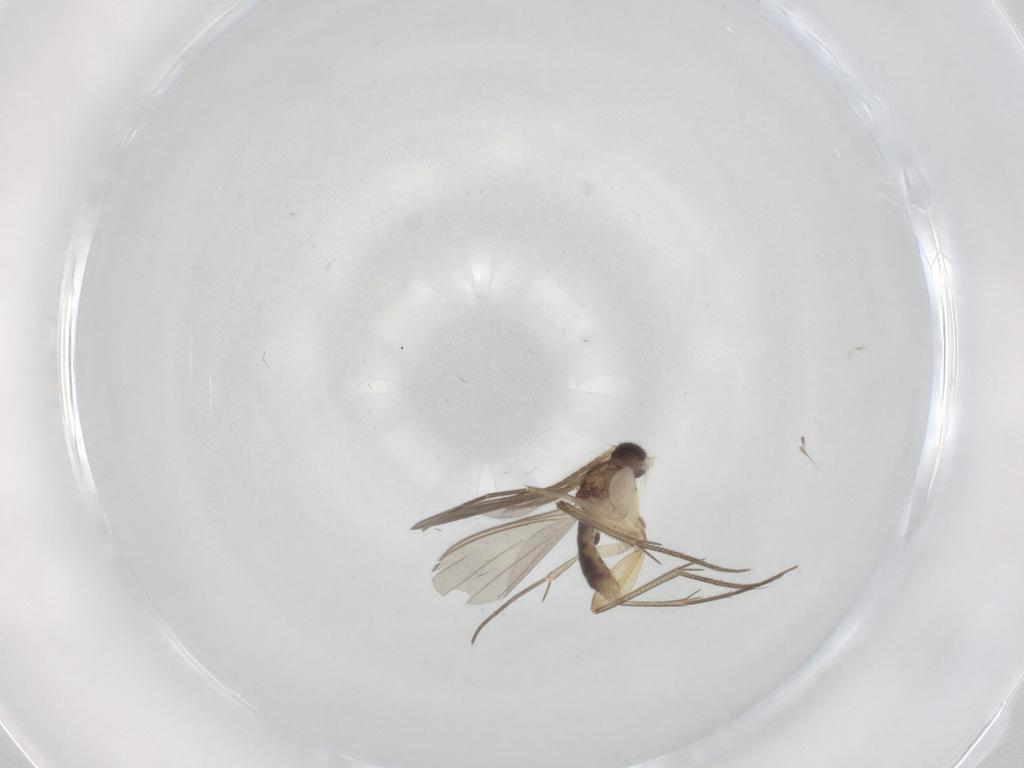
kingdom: Animalia
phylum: Arthropoda
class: Insecta
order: Diptera
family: Mycetophilidae
